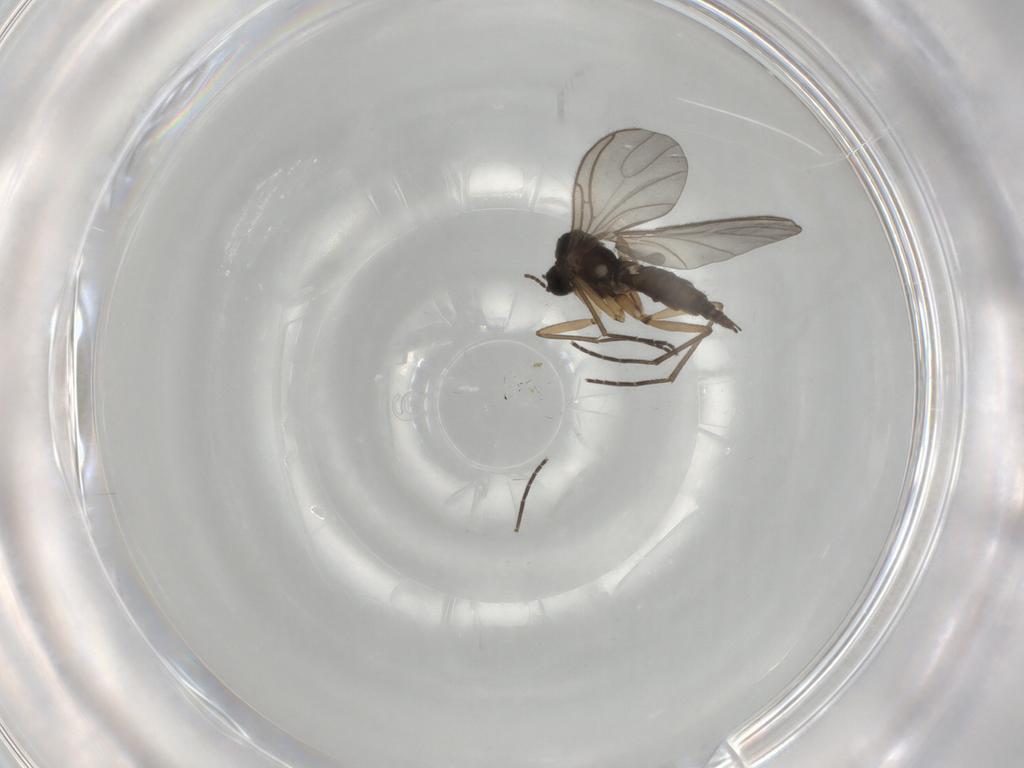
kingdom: Animalia
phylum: Arthropoda
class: Insecta
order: Diptera
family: Sciaridae
